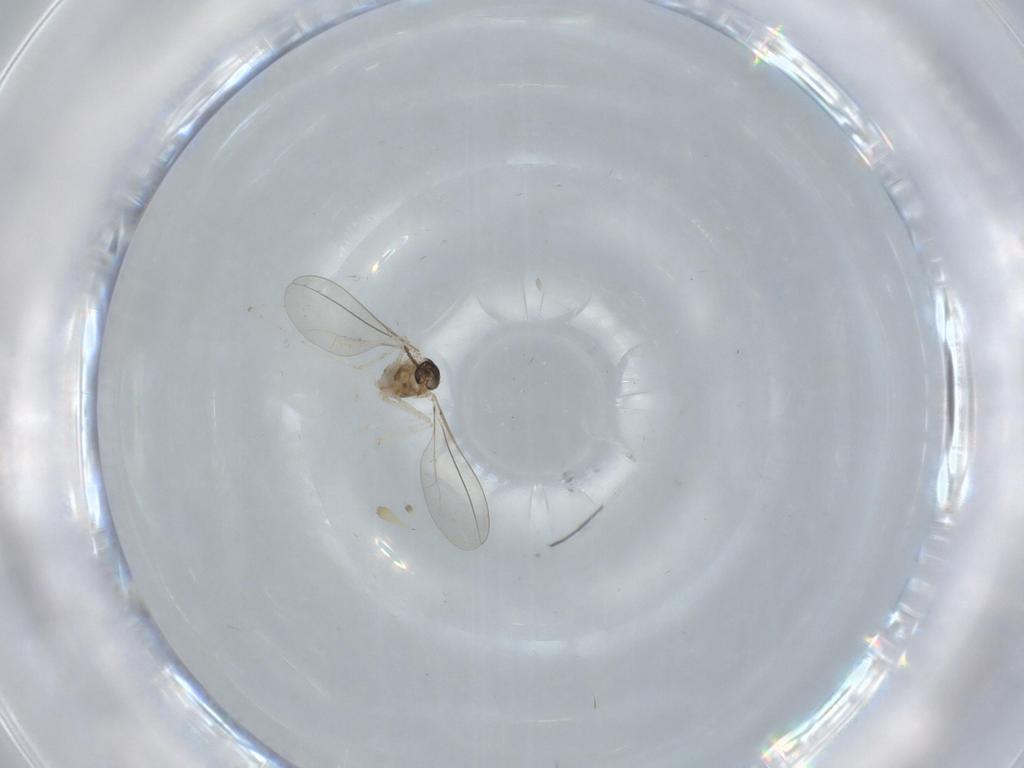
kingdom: Animalia
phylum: Arthropoda
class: Insecta
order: Diptera
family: Cecidomyiidae
